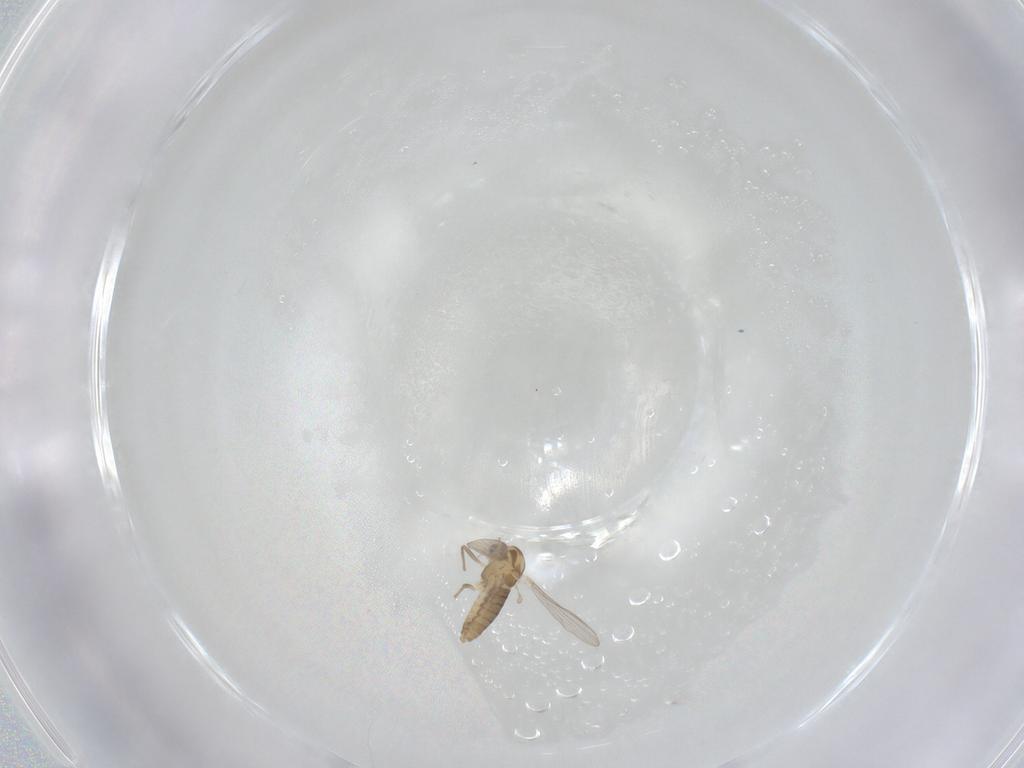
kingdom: Animalia
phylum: Arthropoda
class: Insecta
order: Diptera
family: Chironomidae
